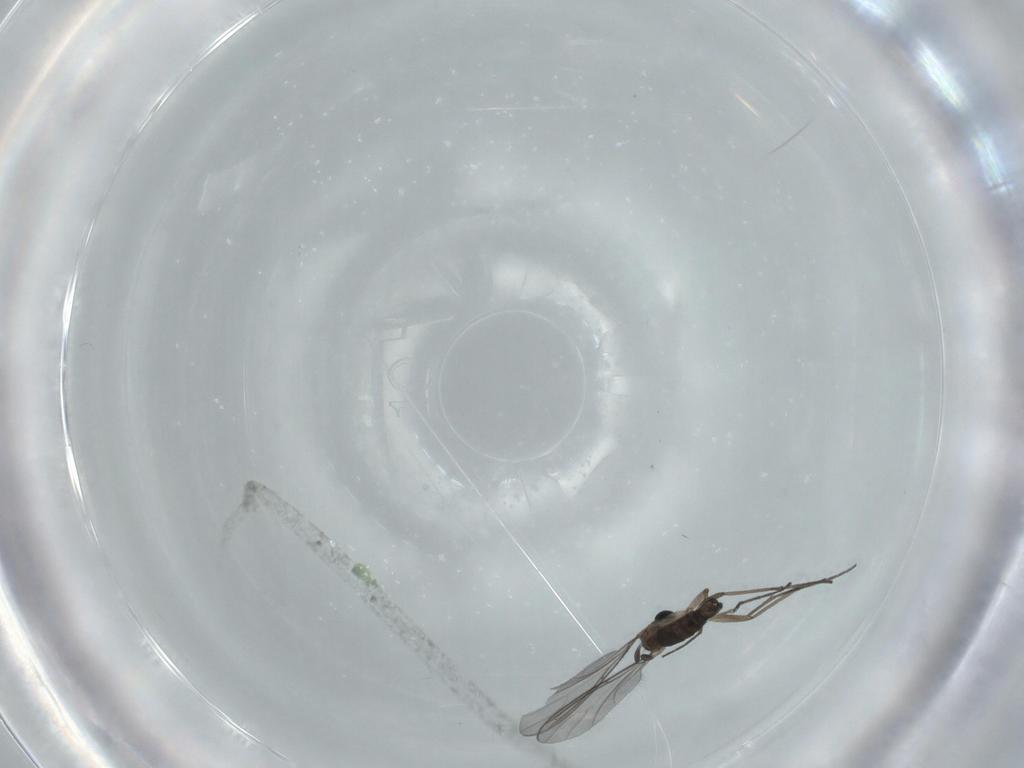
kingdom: Animalia
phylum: Arthropoda
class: Insecta
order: Diptera
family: Sciaridae
